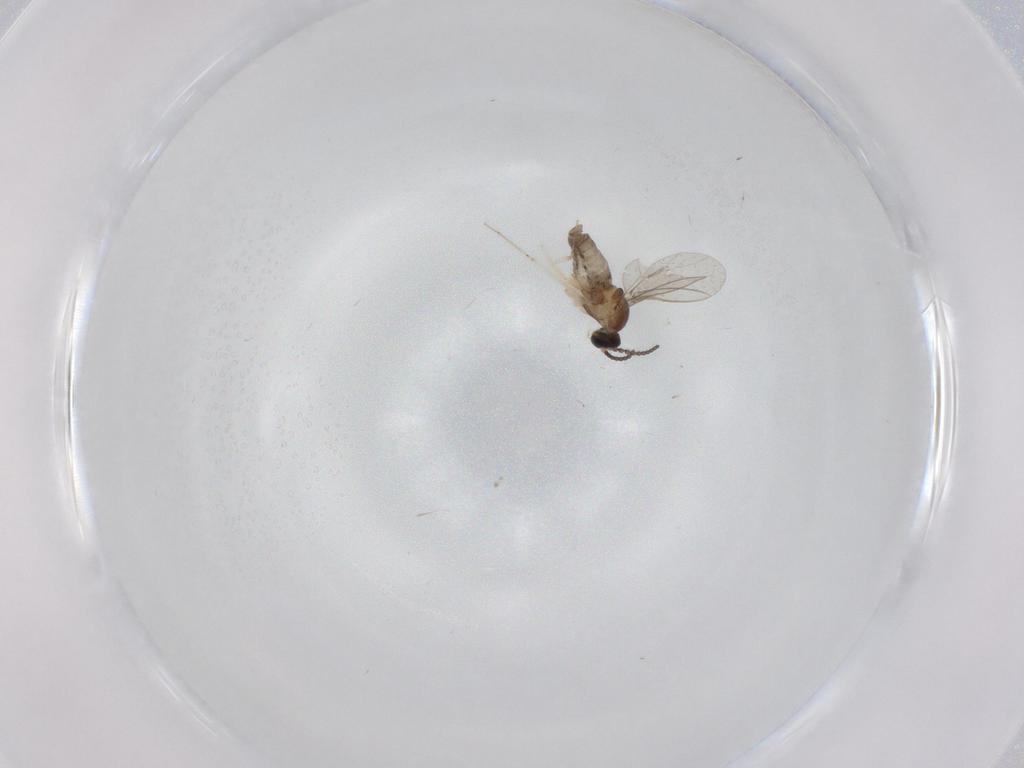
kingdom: Animalia
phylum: Arthropoda
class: Insecta
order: Diptera
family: Cecidomyiidae
